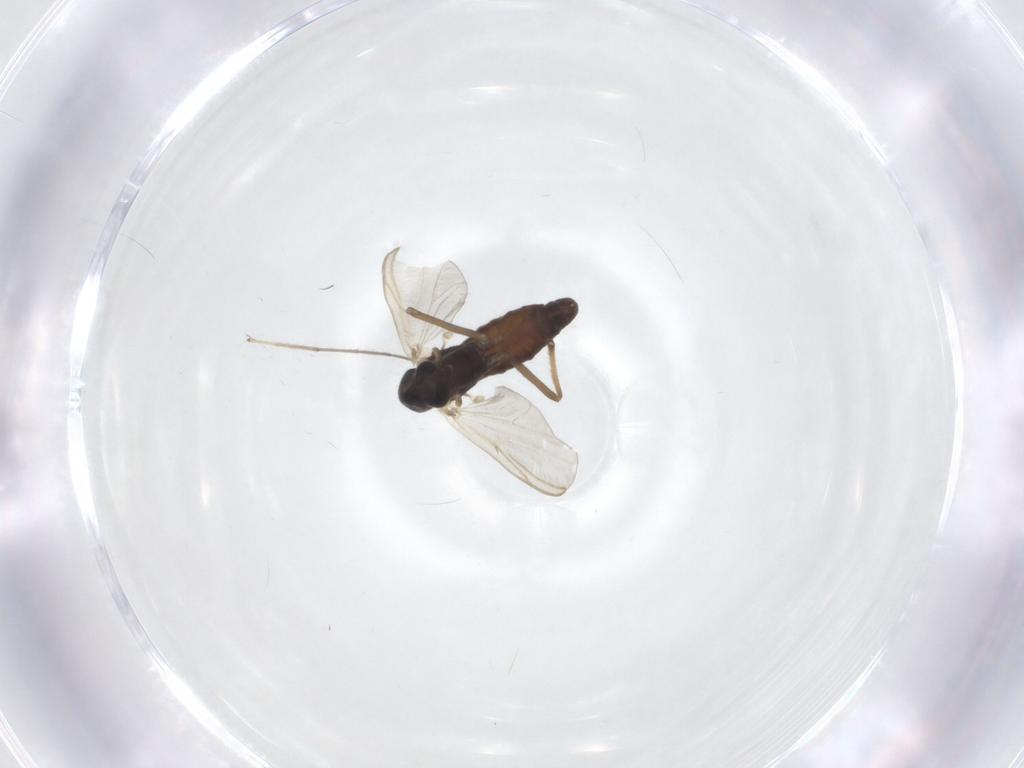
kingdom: Animalia
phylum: Arthropoda
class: Insecta
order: Diptera
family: Chironomidae
